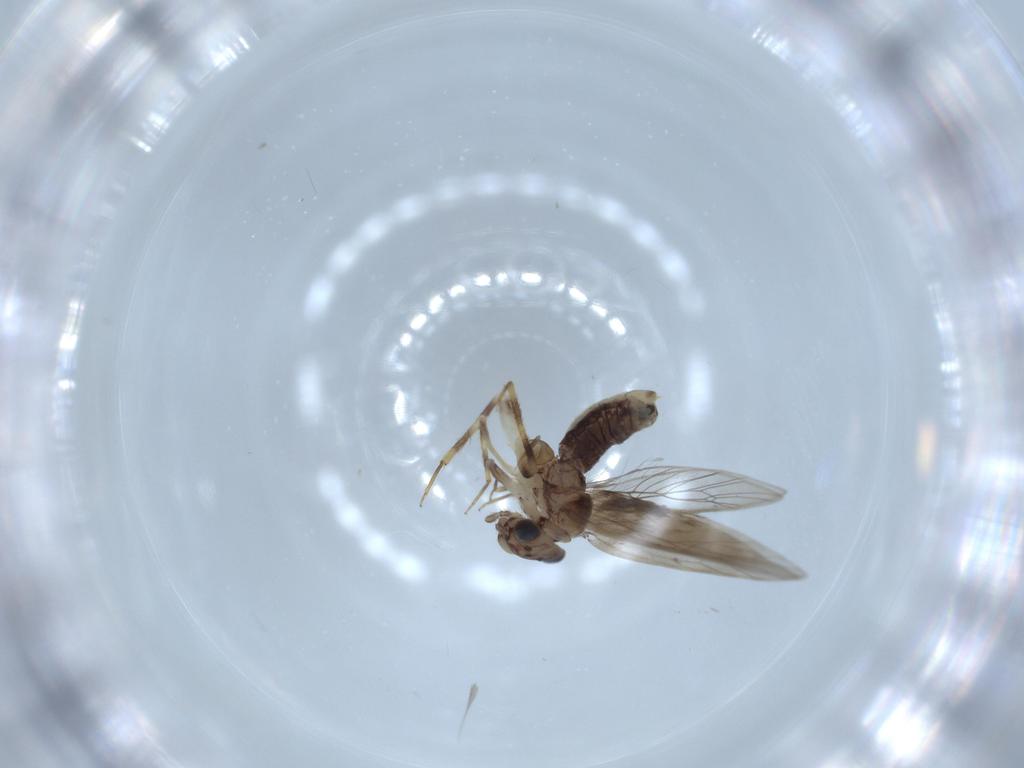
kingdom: Animalia
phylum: Arthropoda
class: Insecta
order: Psocodea
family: Lepidopsocidae
